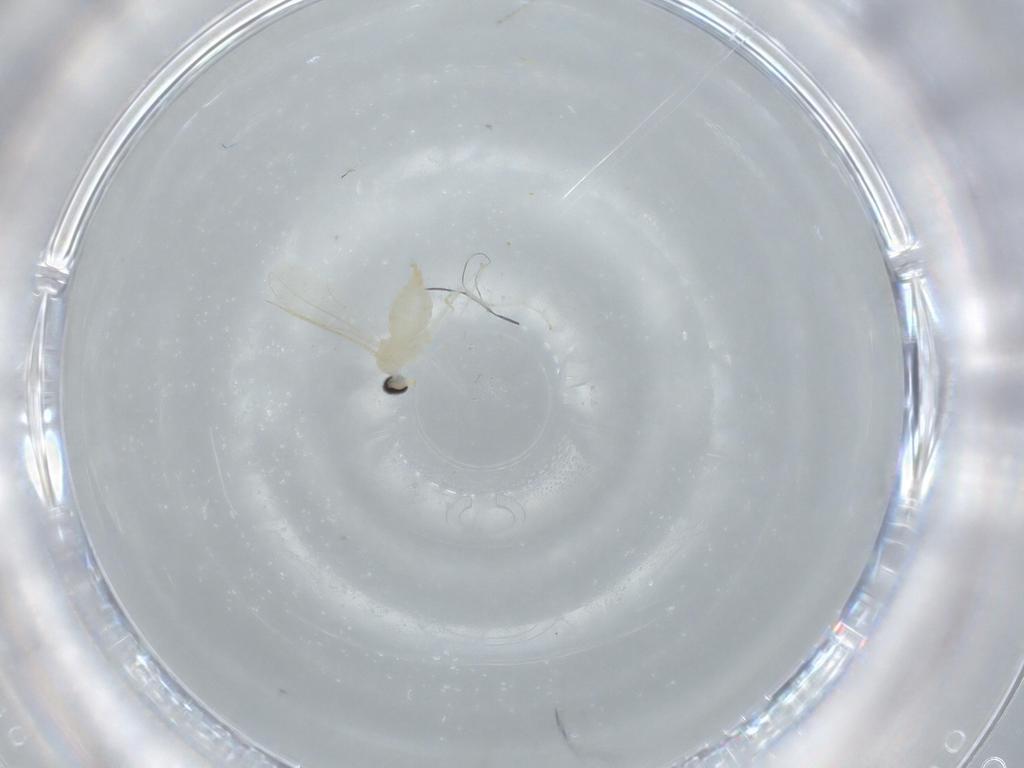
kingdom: Animalia
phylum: Arthropoda
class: Insecta
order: Diptera
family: Cecidomyiidae
